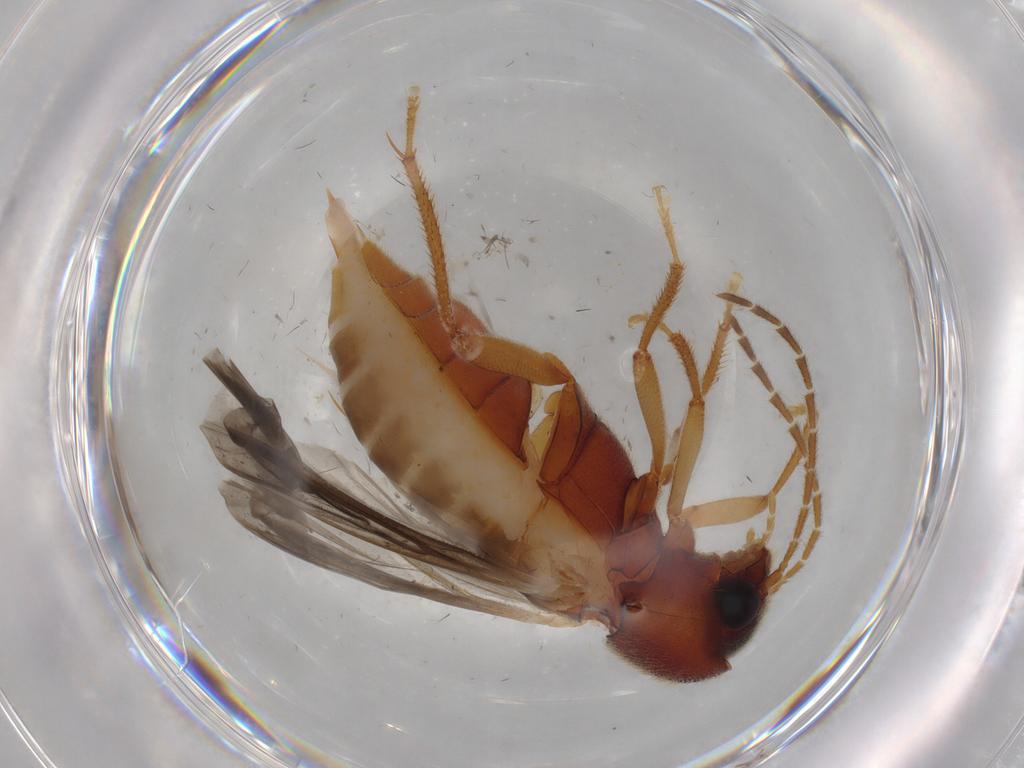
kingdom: Animalia
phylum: Arthropoda
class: Insecta
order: Coleoptera
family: Ptilodactylidae
